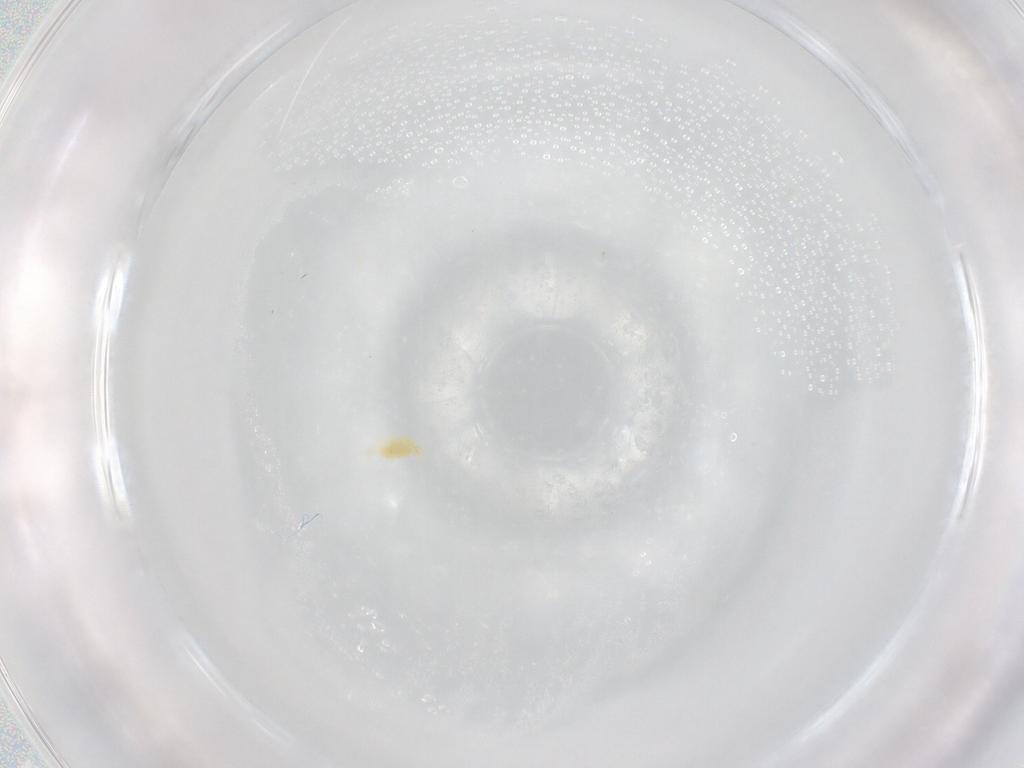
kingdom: Animalia
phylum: Arthropoda
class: Arachnida
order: Trombidiformes
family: Eupodidae
